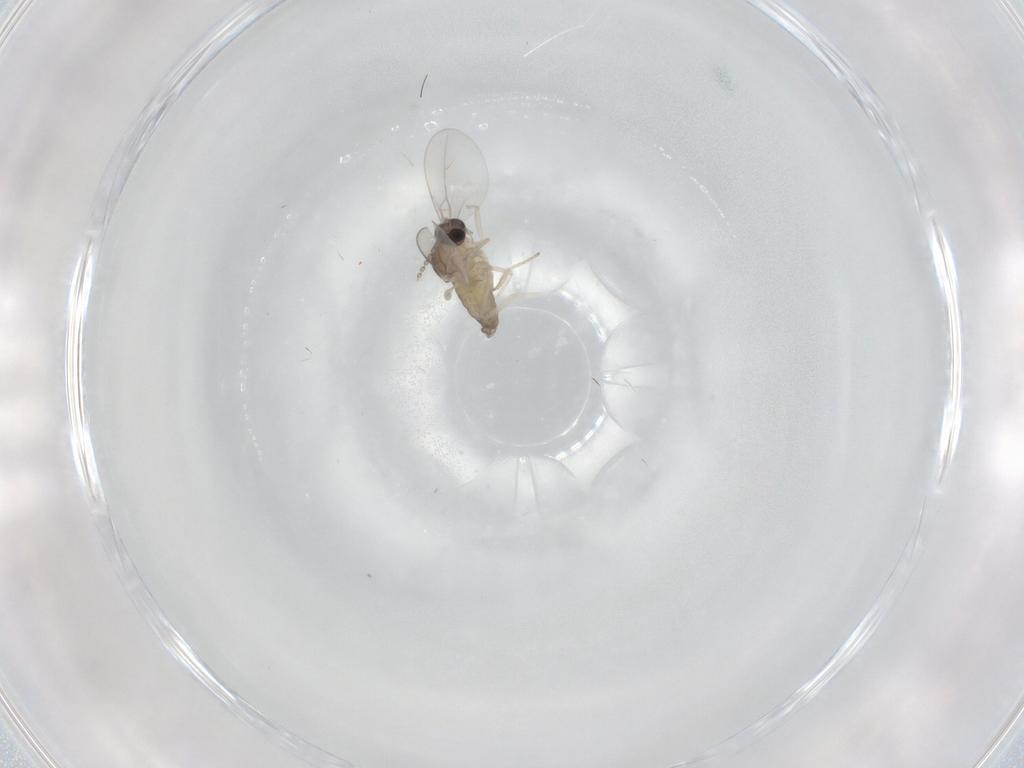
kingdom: Animalia
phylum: Arthropoda
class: Insecta
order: Diptera
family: Cecidomyiidae
